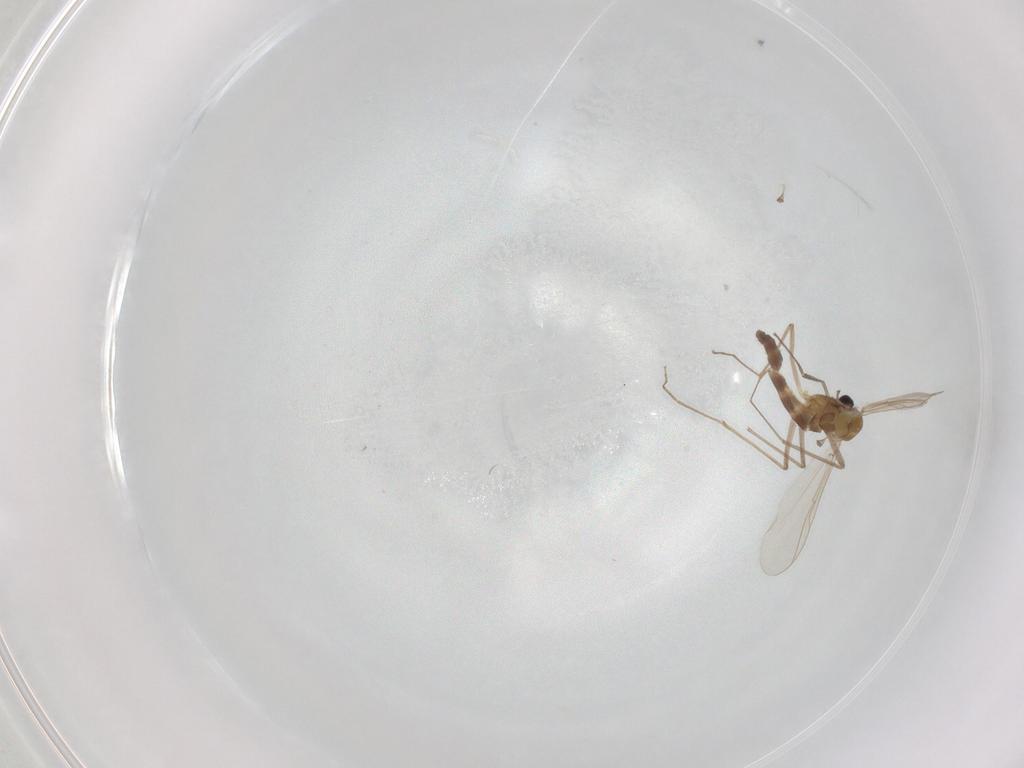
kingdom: Animalia
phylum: Arthropoda
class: Insecta
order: Diptera
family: Chironomidae
